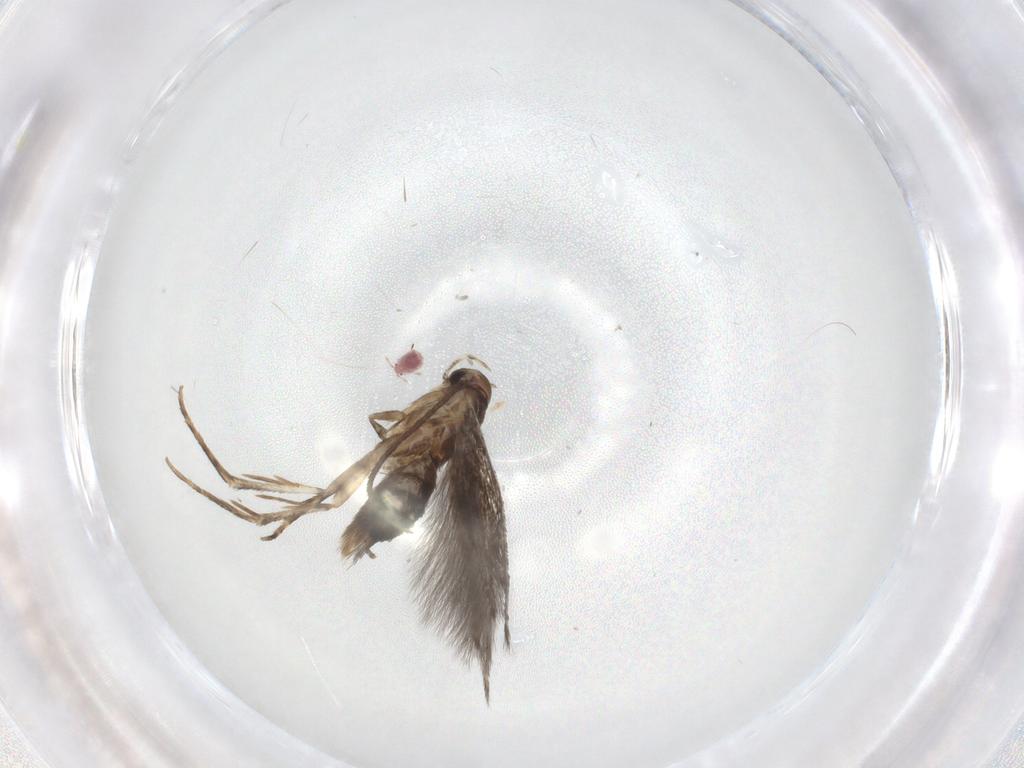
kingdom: Animalia
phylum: Arthropoda
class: Insecta
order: Lepidoptera
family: Elachistidae
